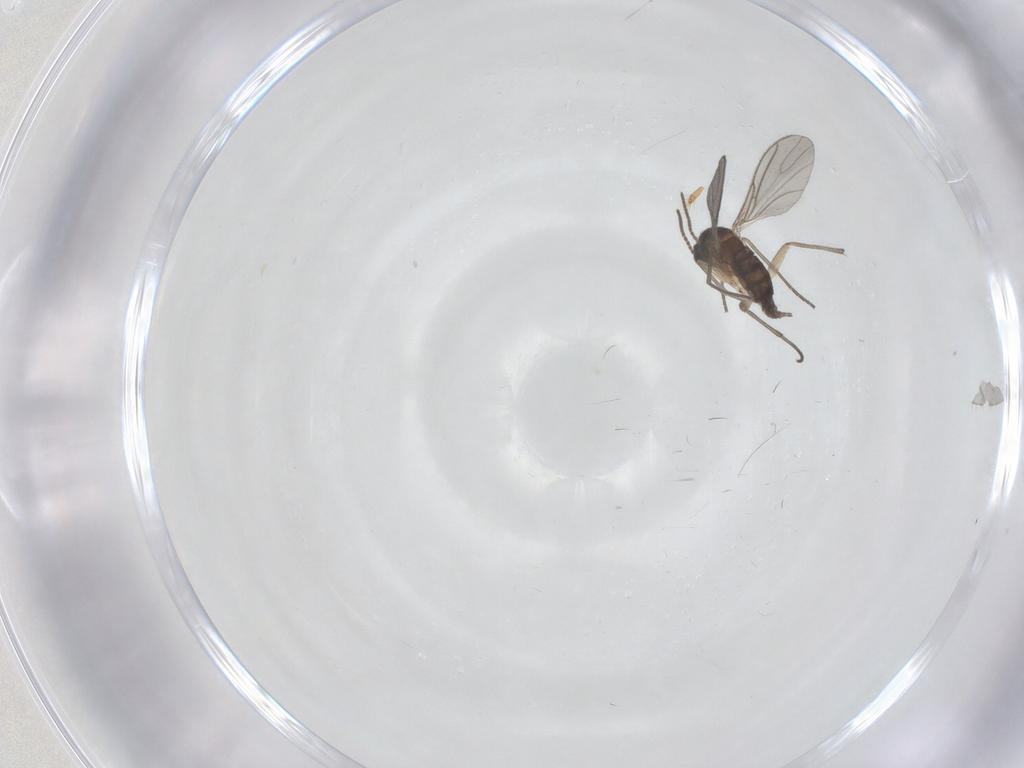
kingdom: Animalia
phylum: Arthropoda
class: Insecta
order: Diptera
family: Sciaridae
